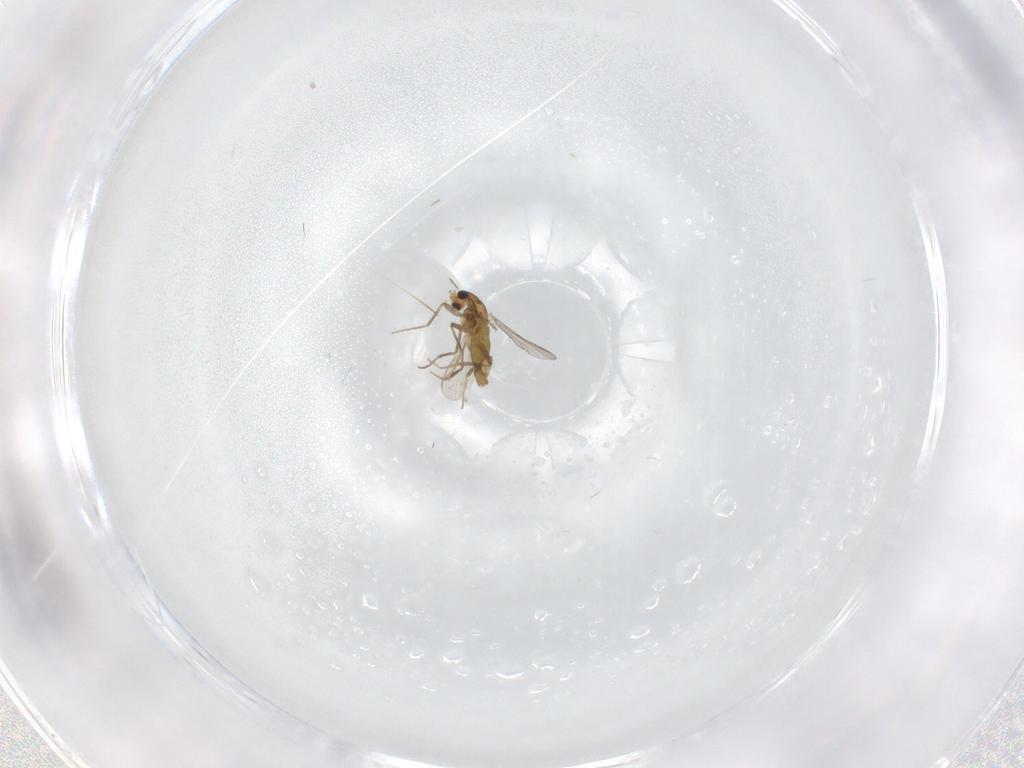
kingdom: Animalia
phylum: Arthropoda
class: Insecta
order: Diptera
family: Chironomidae
